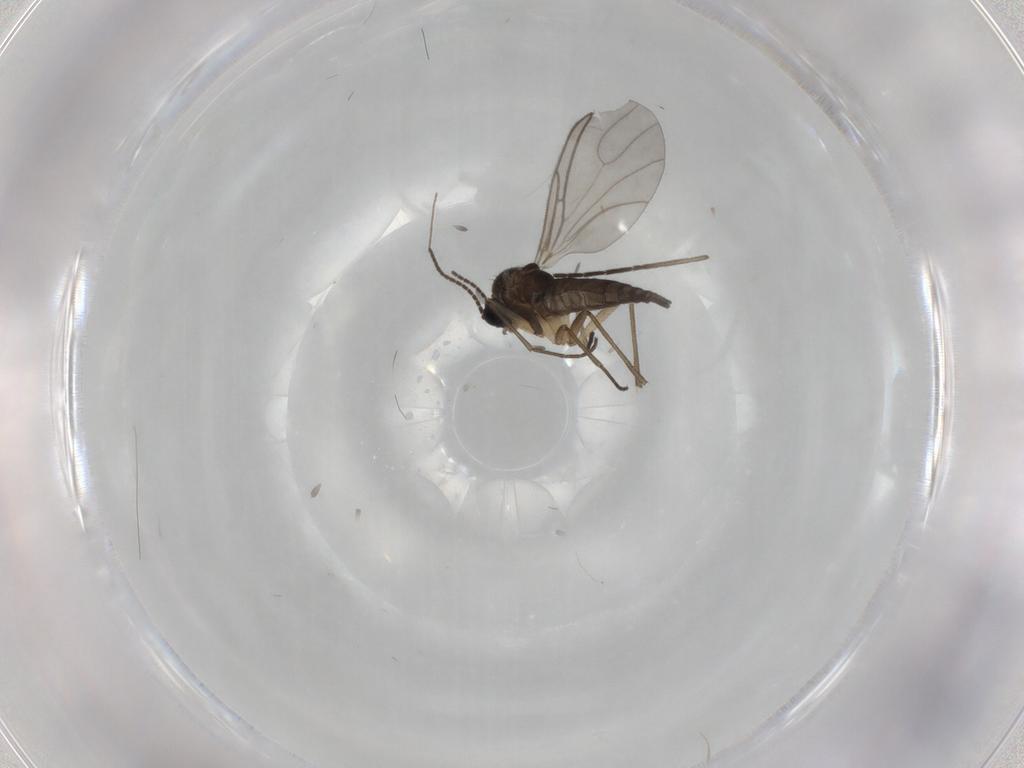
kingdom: Animalia
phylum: Arthropoda
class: Insecta
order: Diptera
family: Sciaridae
